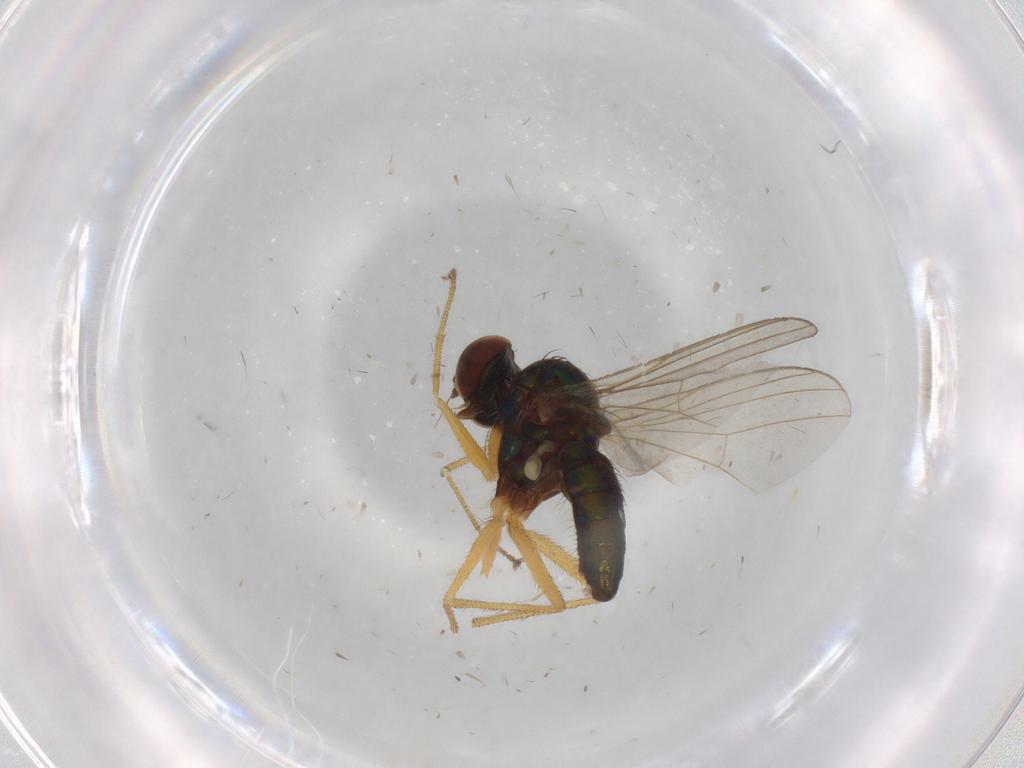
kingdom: Animalia
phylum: Arthropoda
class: Insecta
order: Diptera
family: Dolichopodidae
